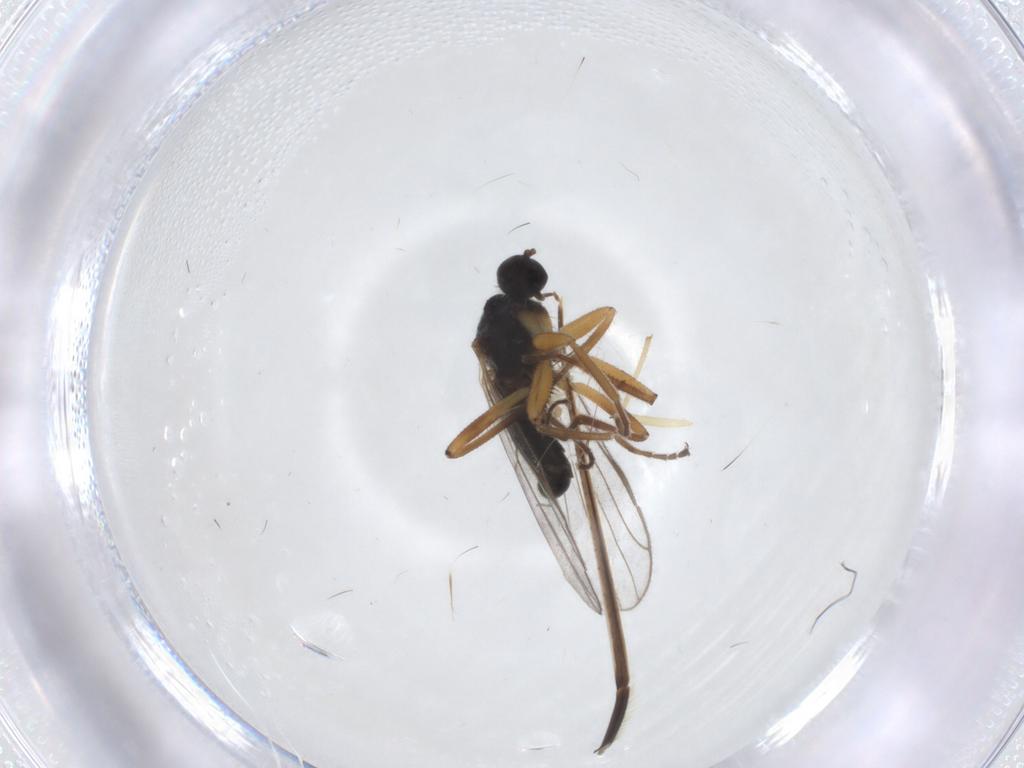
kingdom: Animalia
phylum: Arthropoda
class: Insecta
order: Diptera
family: Hybotidae
